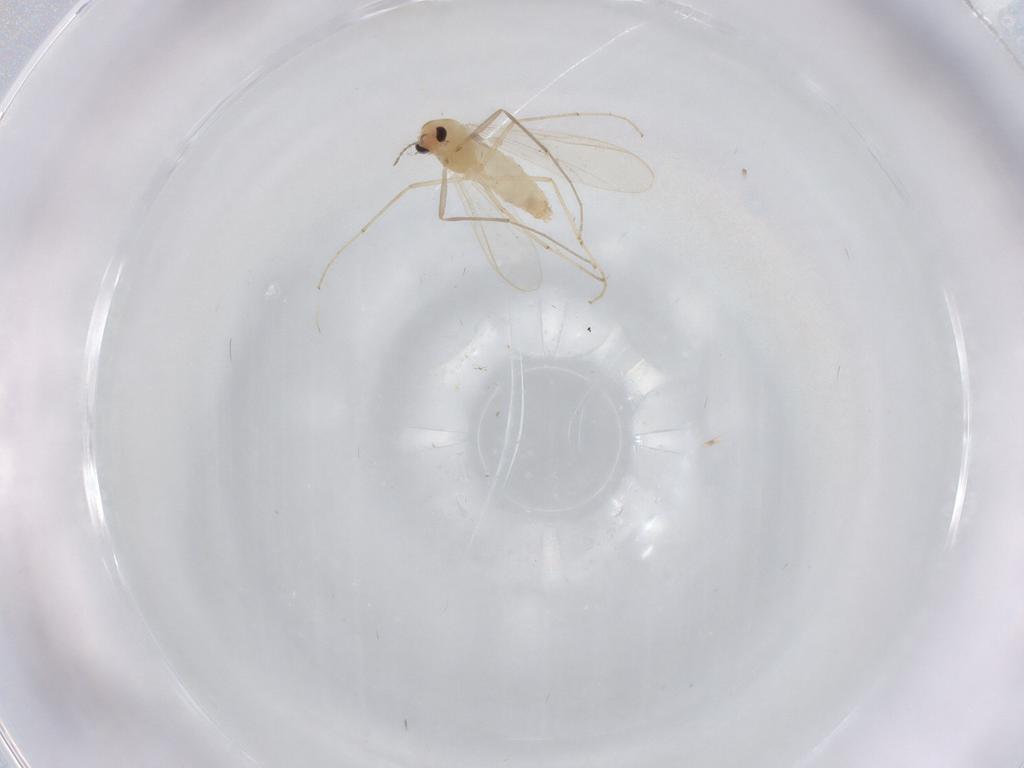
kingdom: Animalia
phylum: Arthropoda
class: Insecta
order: Diptera
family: Chironomidae
